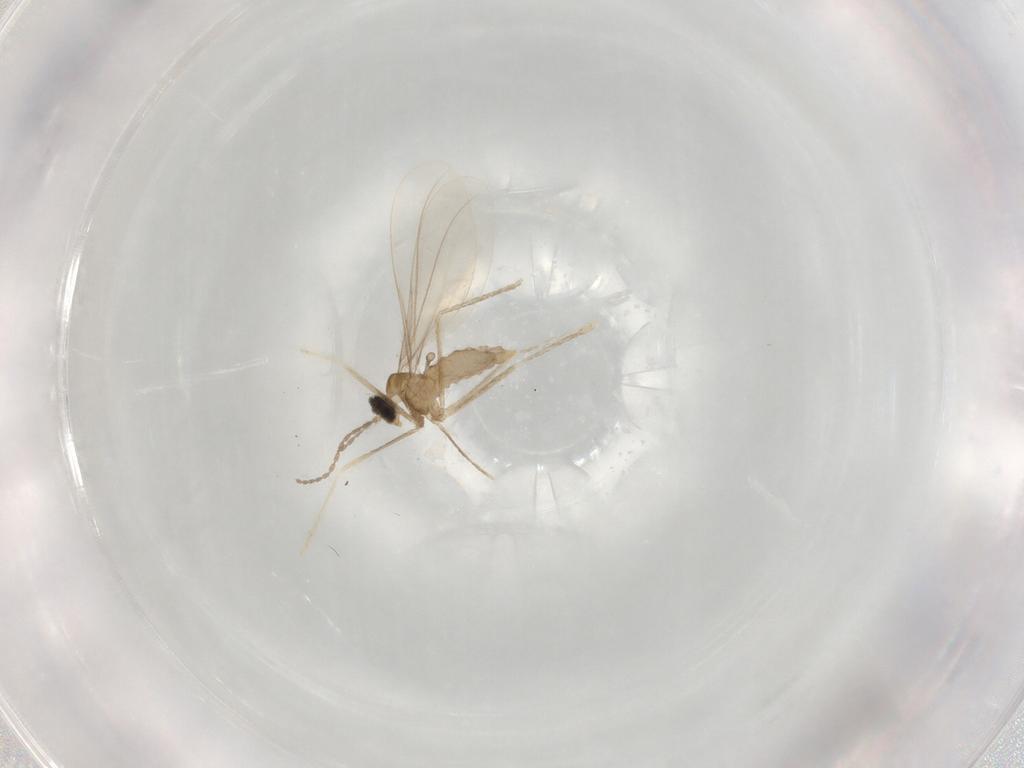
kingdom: Animalia
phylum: Arthropoda
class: Insecta
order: Diptera
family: Cecidomyiidae
